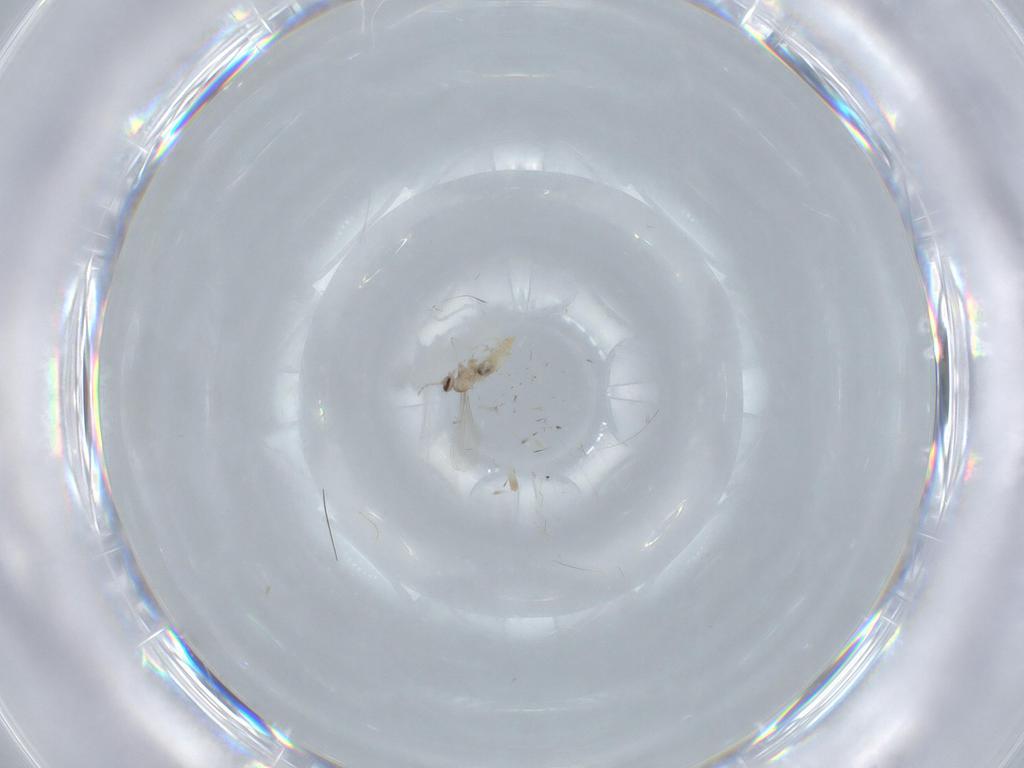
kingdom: Animalia
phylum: Arthropoda
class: Insecta
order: Diptera
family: Cecidomyiidae
